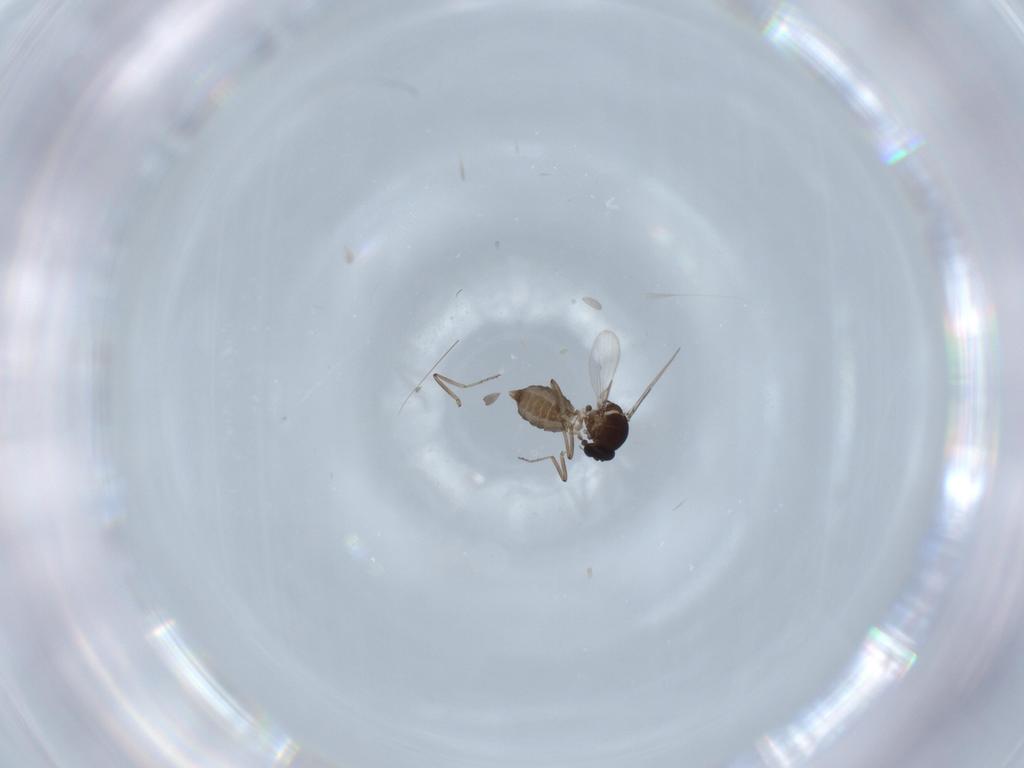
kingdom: Animalia
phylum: Arthropoda
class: Insecta
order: Diptera
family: Ceratopogonidae
